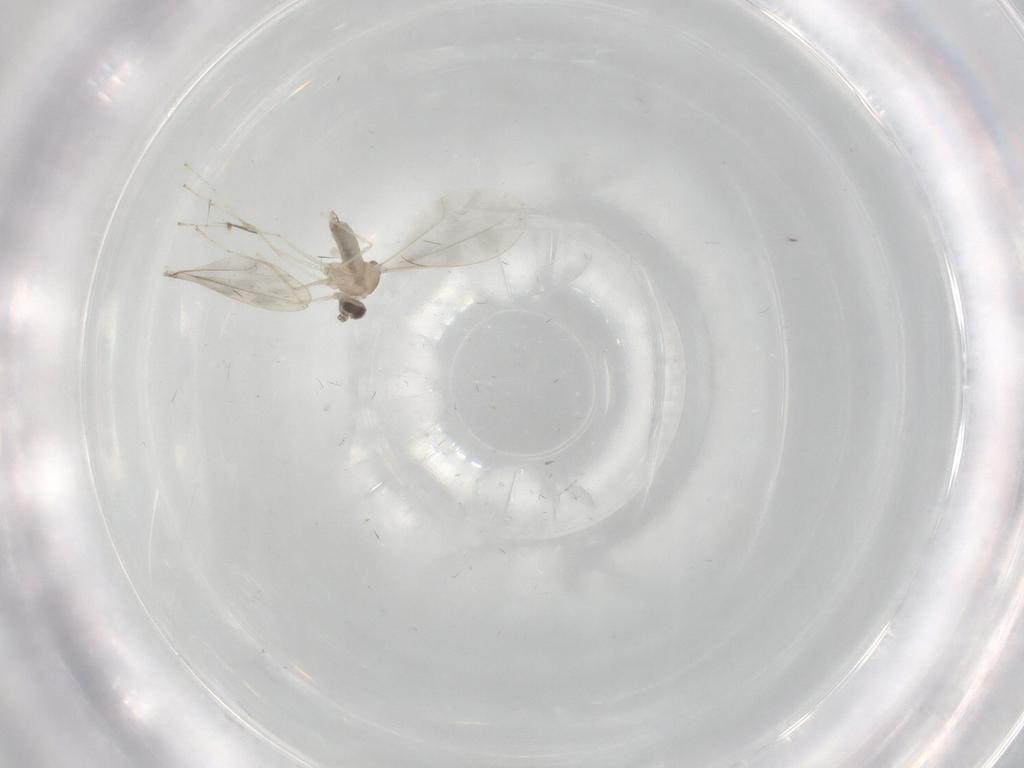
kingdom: Animalia
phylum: Arthropoda
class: Insecta
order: Diptera
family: Cecidomyiidae
